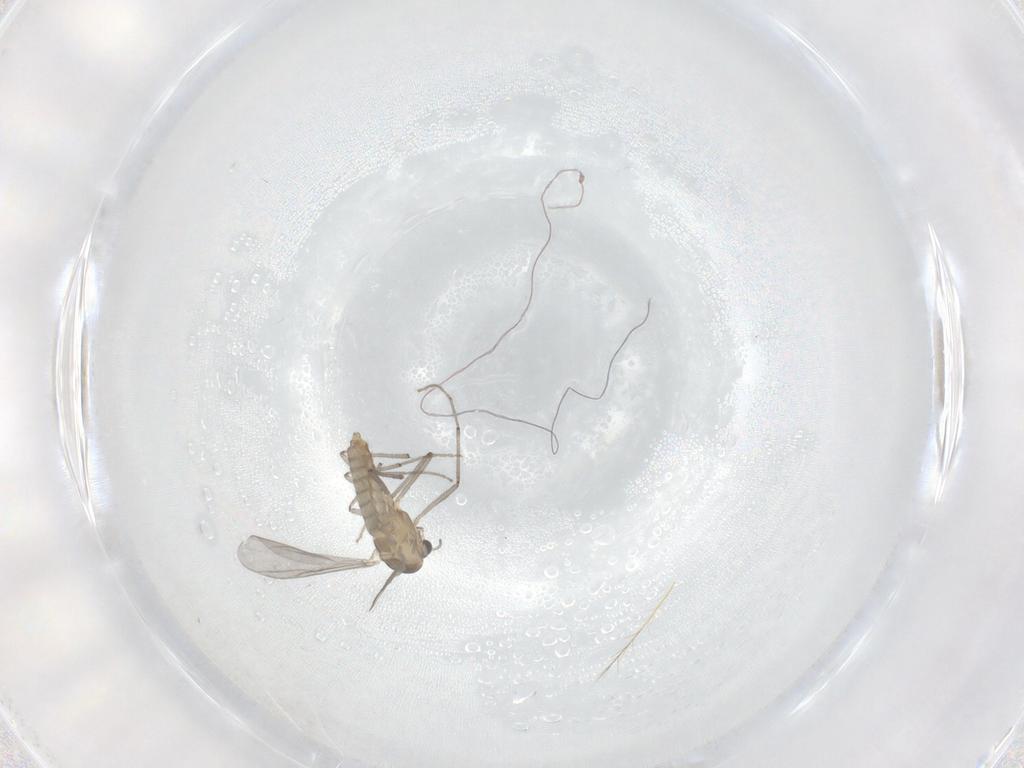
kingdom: Animalia
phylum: Arthropoda
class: Insecta
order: Diptera
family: Chironomidae
